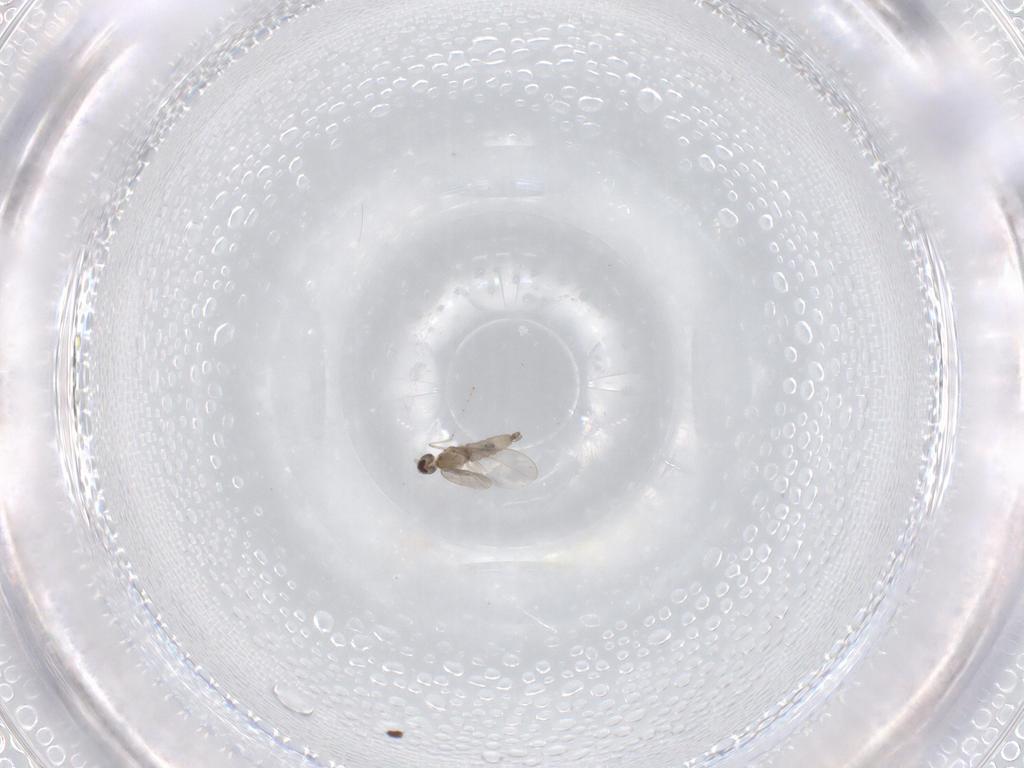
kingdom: Animalia
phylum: Arthropoda
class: Insecta
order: Diptera
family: Cecidomyiidae
